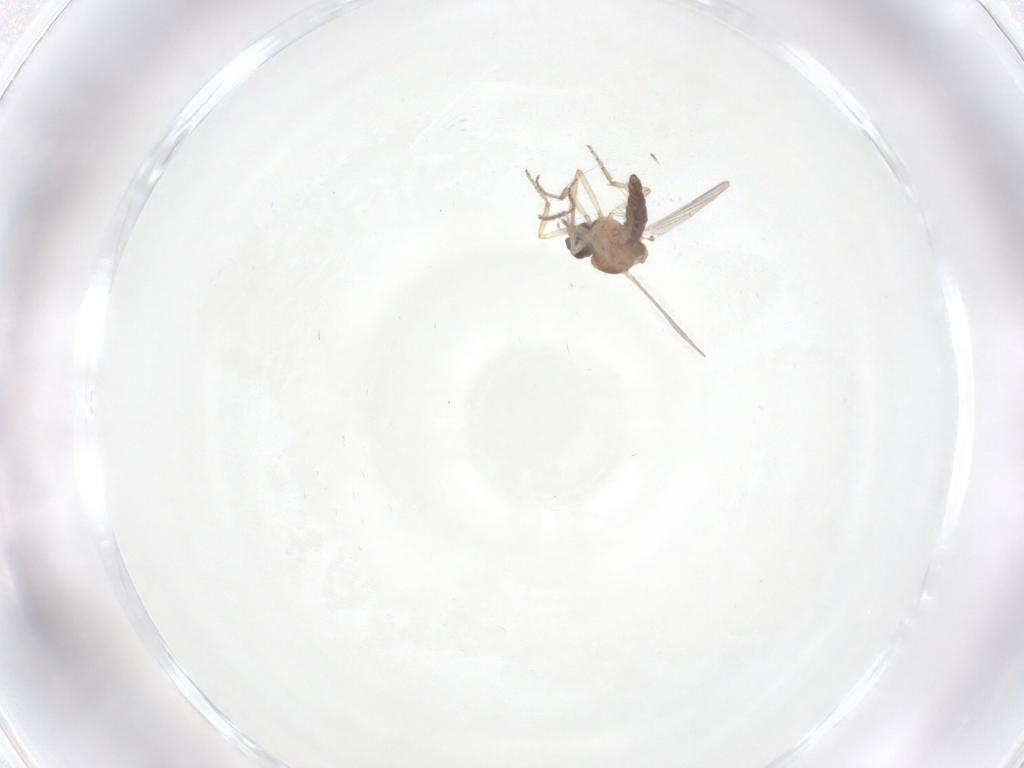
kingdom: Animalia
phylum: Arthropoda
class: Insecta
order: Diptera
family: Ceratopogonidae
